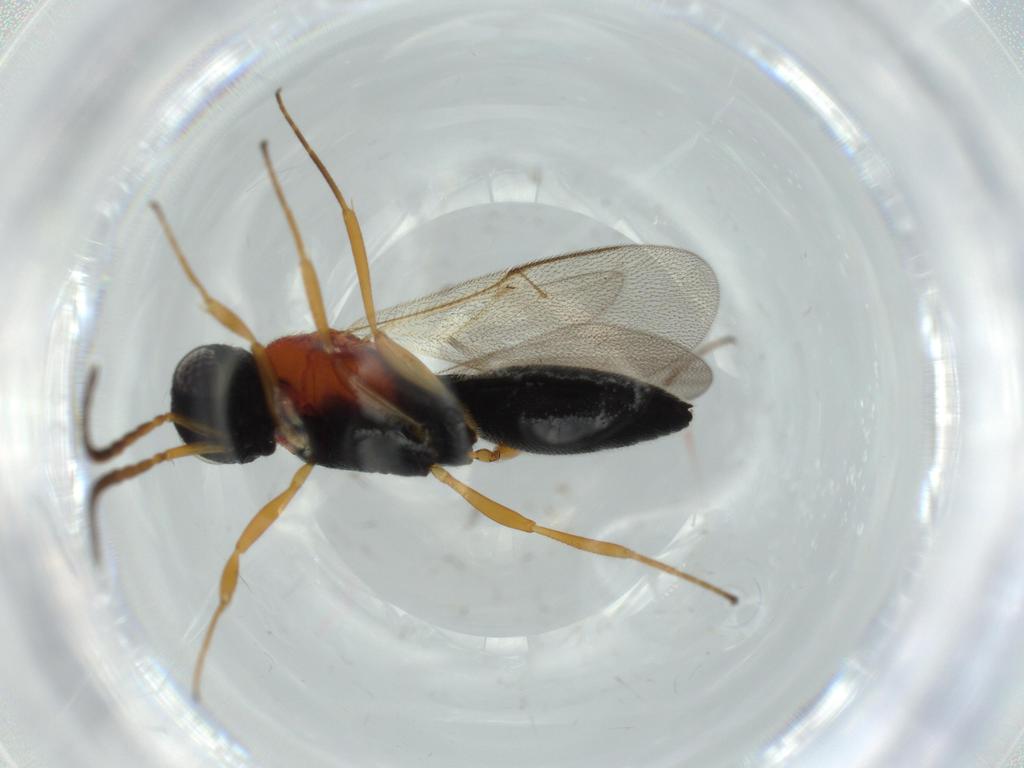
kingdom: Animalia
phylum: Arthropoda
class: Insecta
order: Hymenoptera
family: Scelionidae
